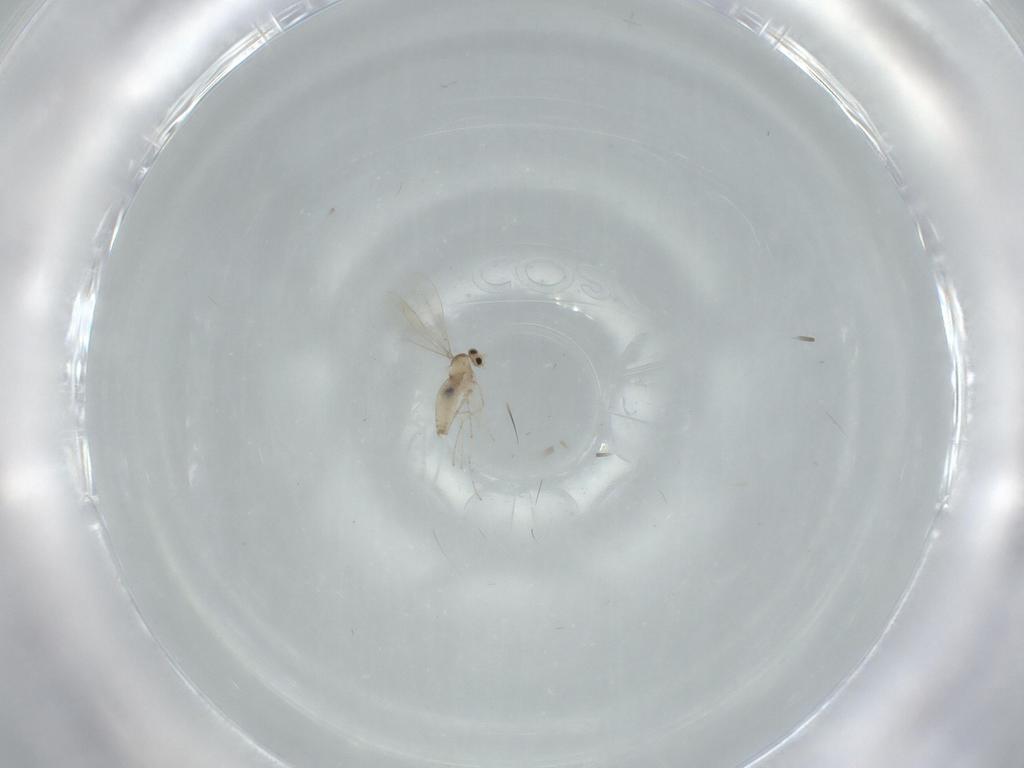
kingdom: Animalia
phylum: Arthropoda
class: Insecta
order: Diptera
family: Cecidomyiidae
